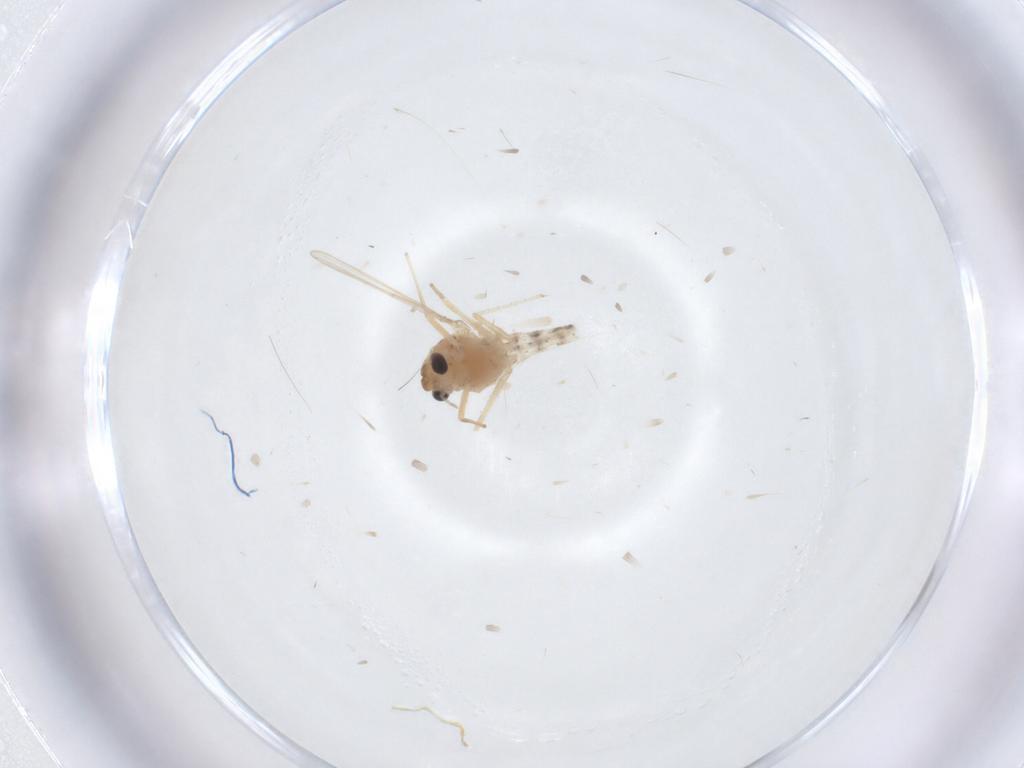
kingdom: Animalia
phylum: Arthropoda
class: Insecta
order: Diptera
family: Chironomidae
